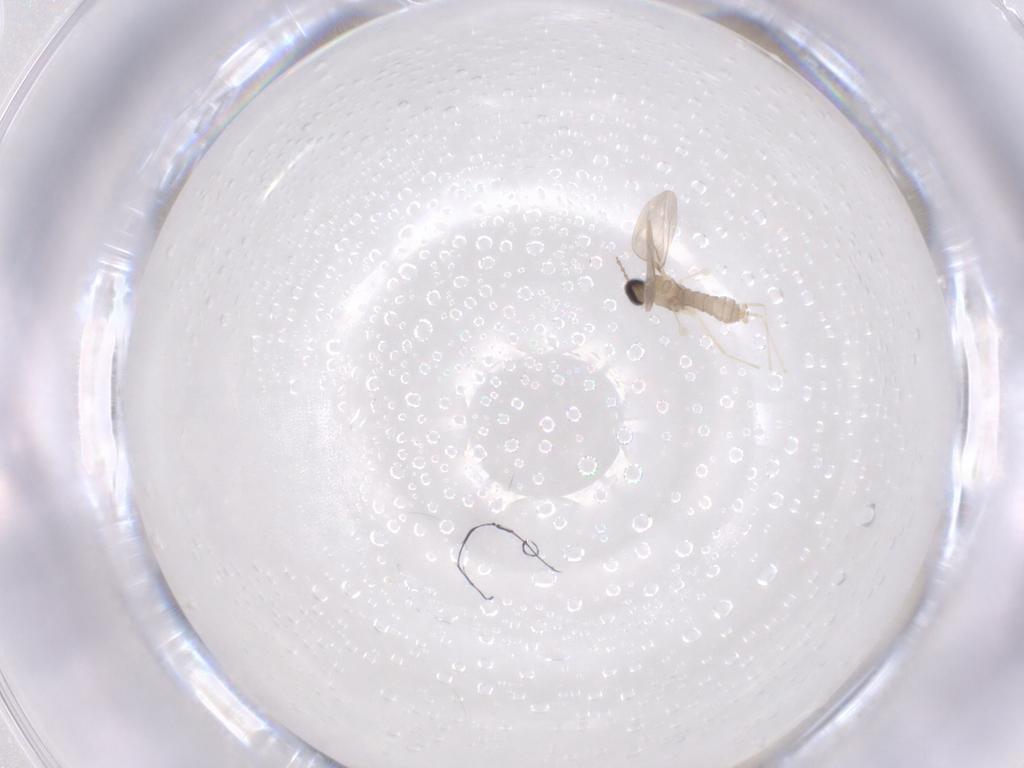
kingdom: Animalia
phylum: Arthropoda
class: Insecta
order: Diptera
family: Cecidomyiidae
